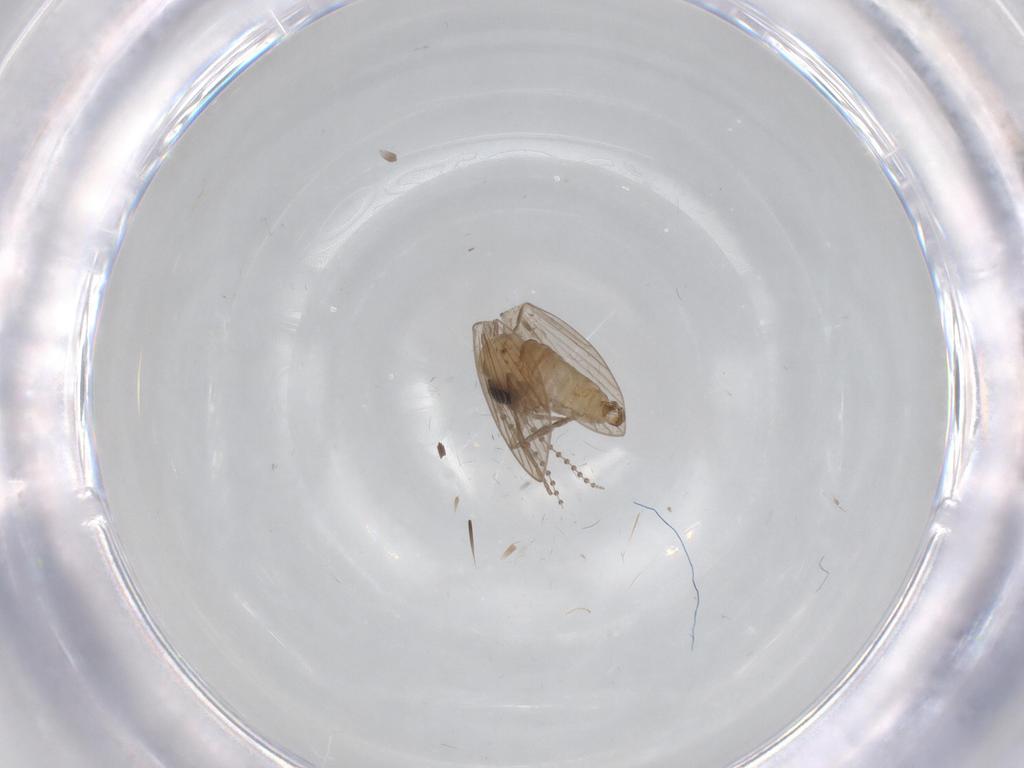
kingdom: Animalia
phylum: Arthropoda
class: Insecta
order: Diptera
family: Psychodidae
